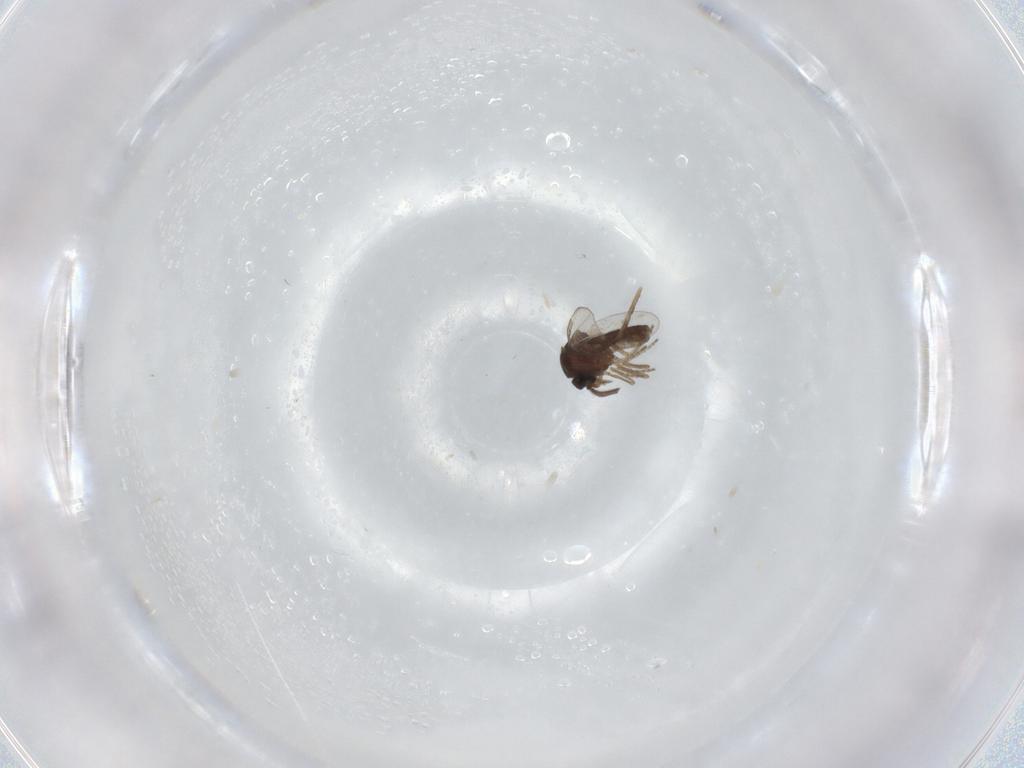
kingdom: Animalia
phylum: Arthropoda
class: Insecta
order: Diptera
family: Ceratopogonidae
